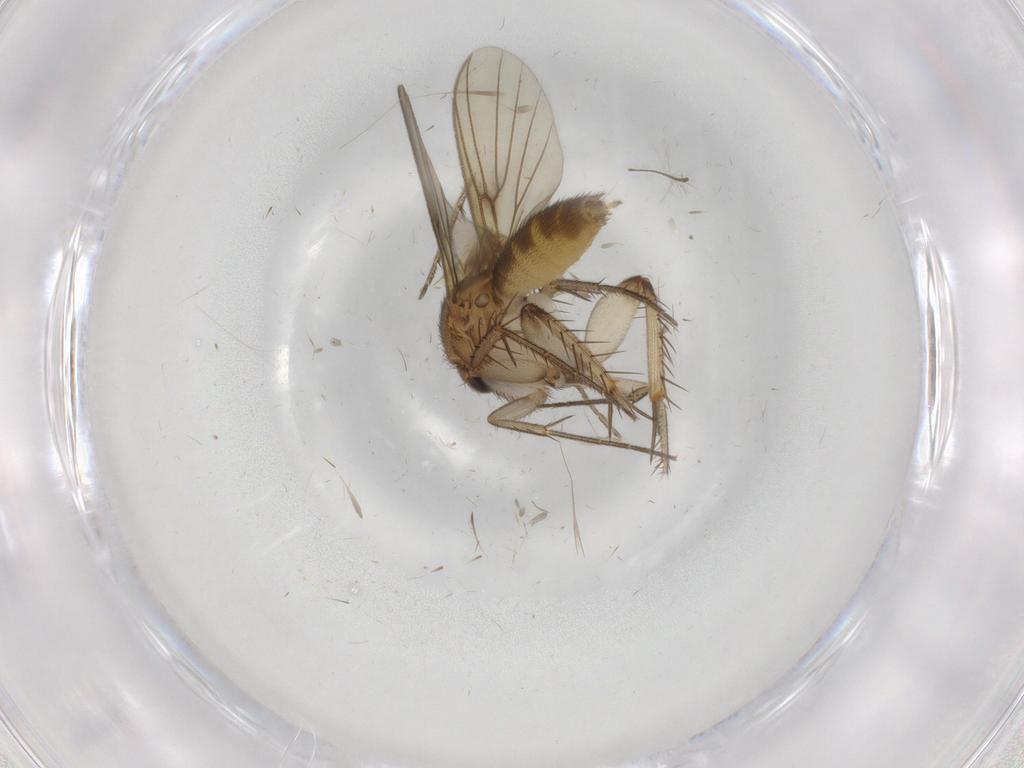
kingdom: Animalia
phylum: Arthropoda
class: Insecta
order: Diptera
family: Mycetophilidae
